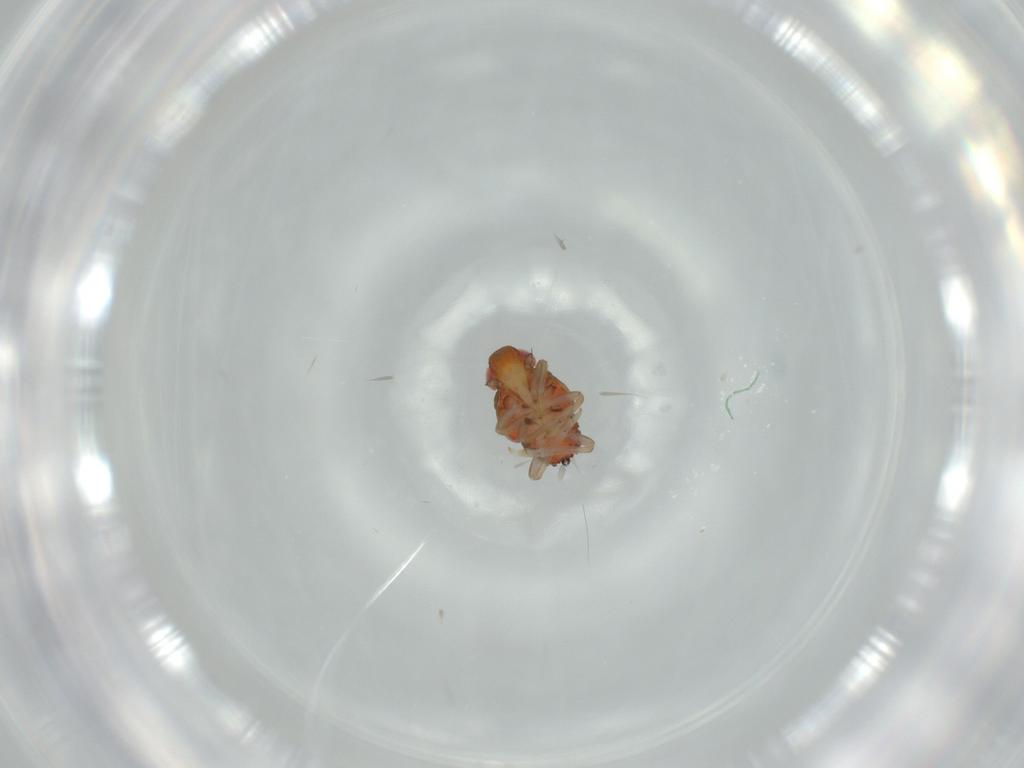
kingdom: Animalia
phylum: Arthropoda
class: Insecta
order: Hemiptera
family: Issidae
